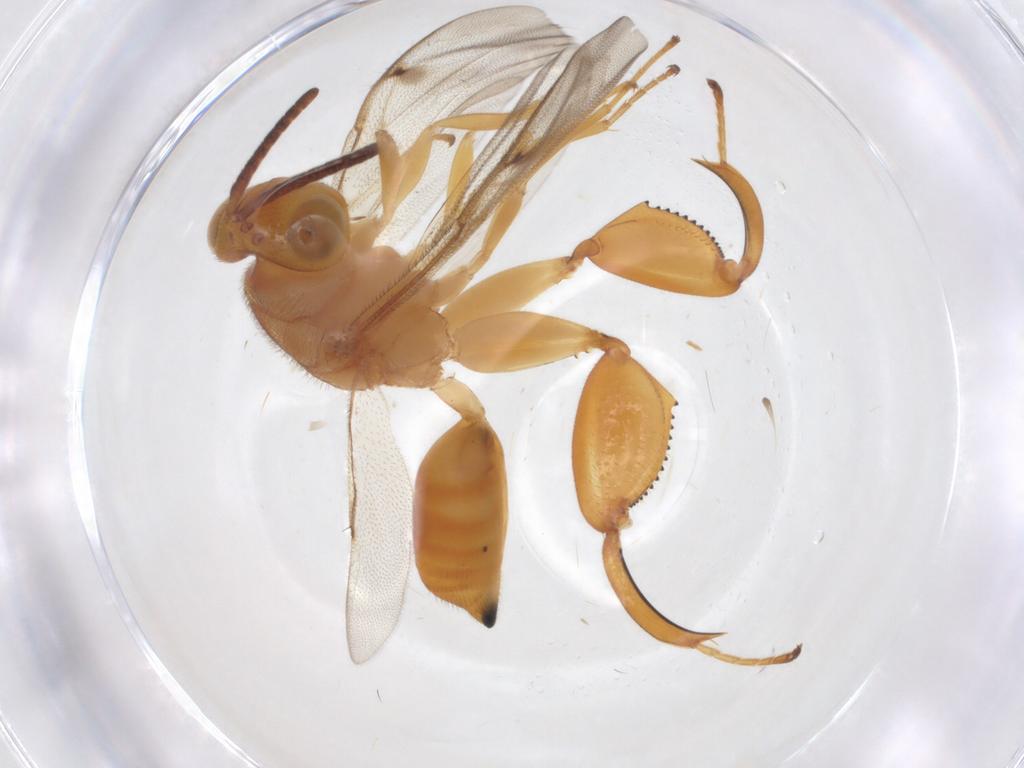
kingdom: Animalia
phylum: Arthropoda
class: Insecta
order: Hymenoptera
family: Chalcididae
